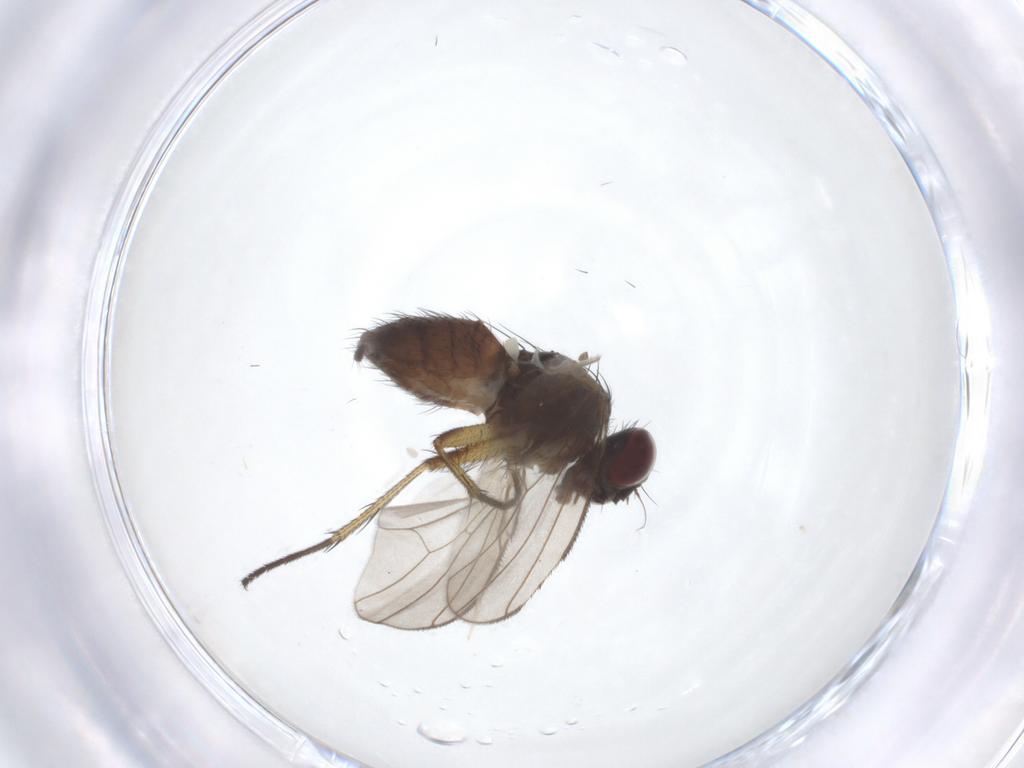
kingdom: Animalia
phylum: Arthropoda
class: Insecta
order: Diptera
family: Muscidae
